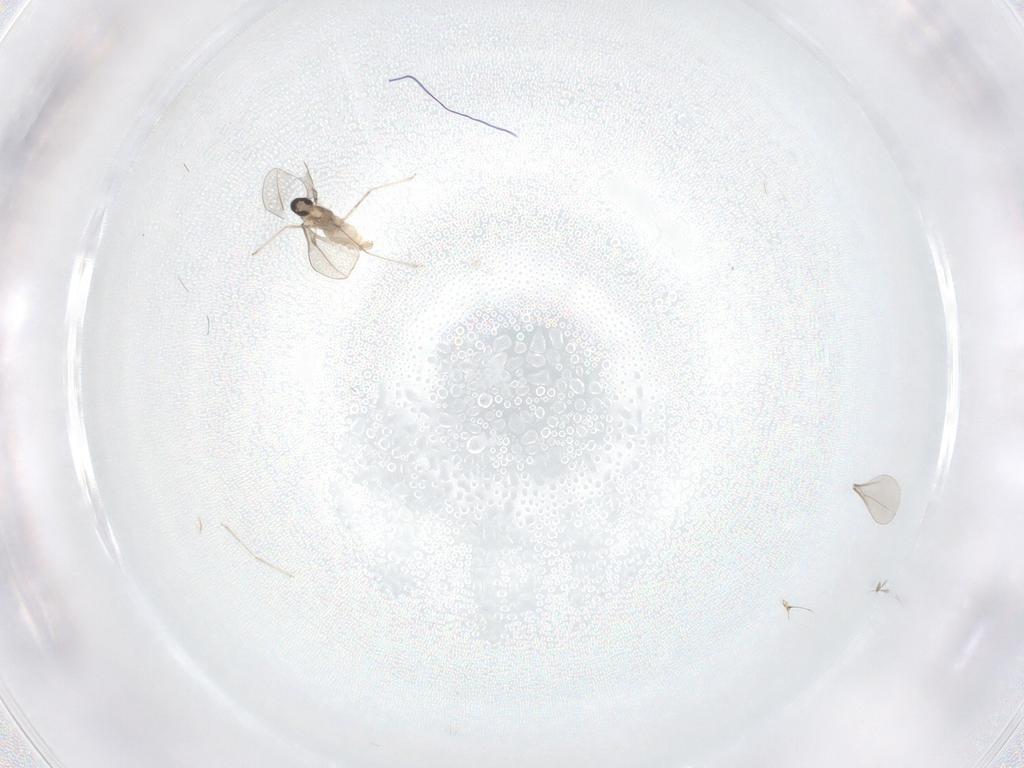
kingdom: Animalia
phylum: Arthropoda
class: Insecta
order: Diptera
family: Cecidomyiidae
